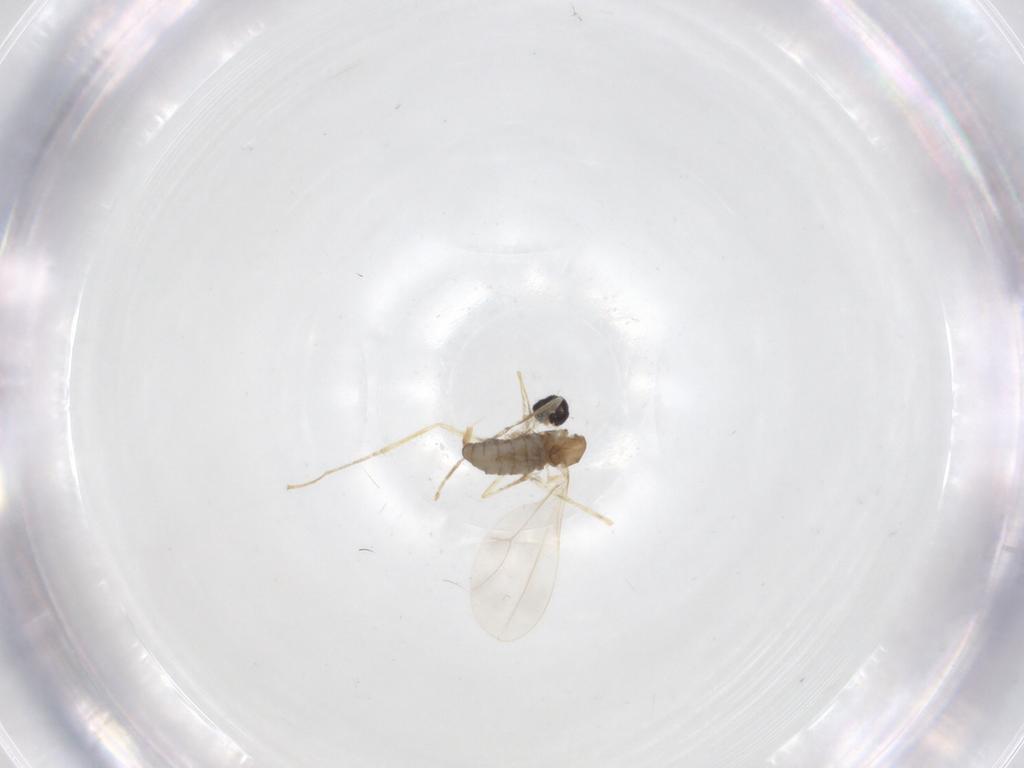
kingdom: Animalia
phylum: Arthropoda
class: Insecta
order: Diptera
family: Cecidomyiidae
